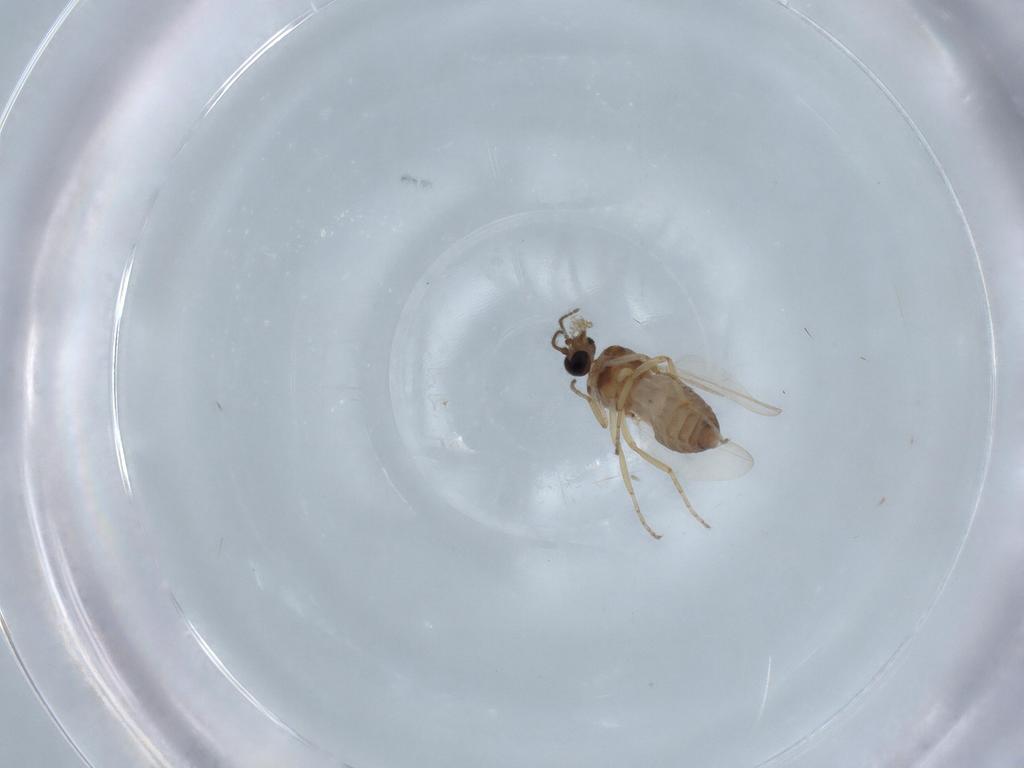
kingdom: Animalia
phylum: Arthropoda
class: Insecta
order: Diptera
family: Ceratopogonidae
